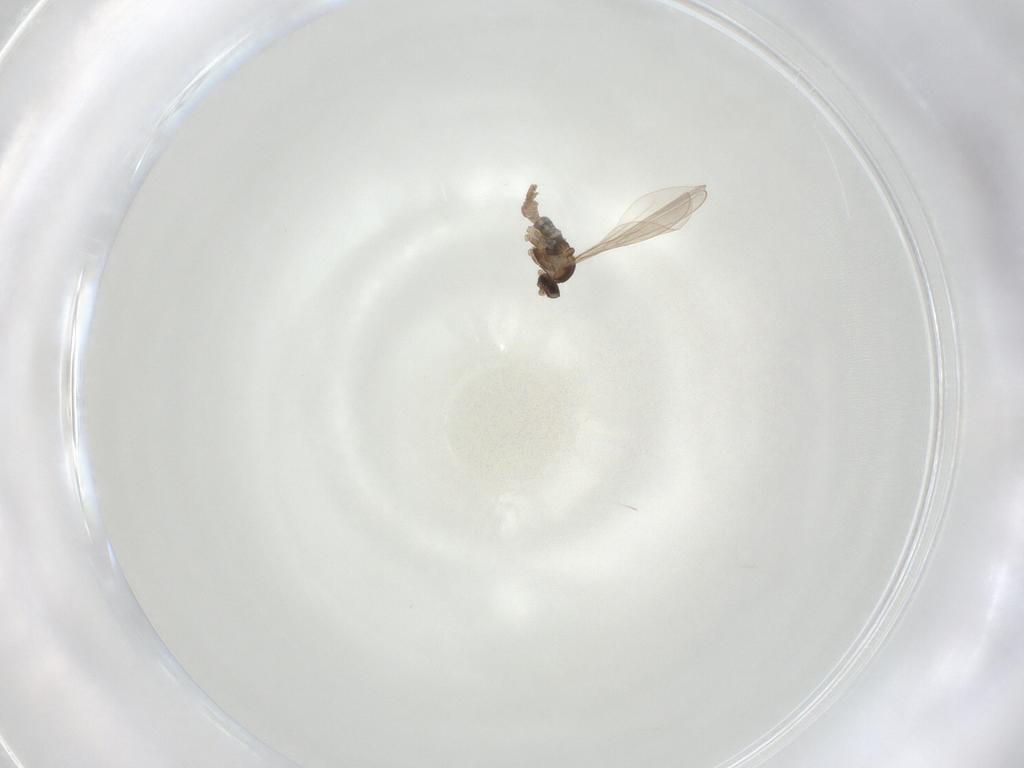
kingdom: Animalia
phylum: Arthropoda
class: Insecta
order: Diptera
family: Cecidomyiidae
